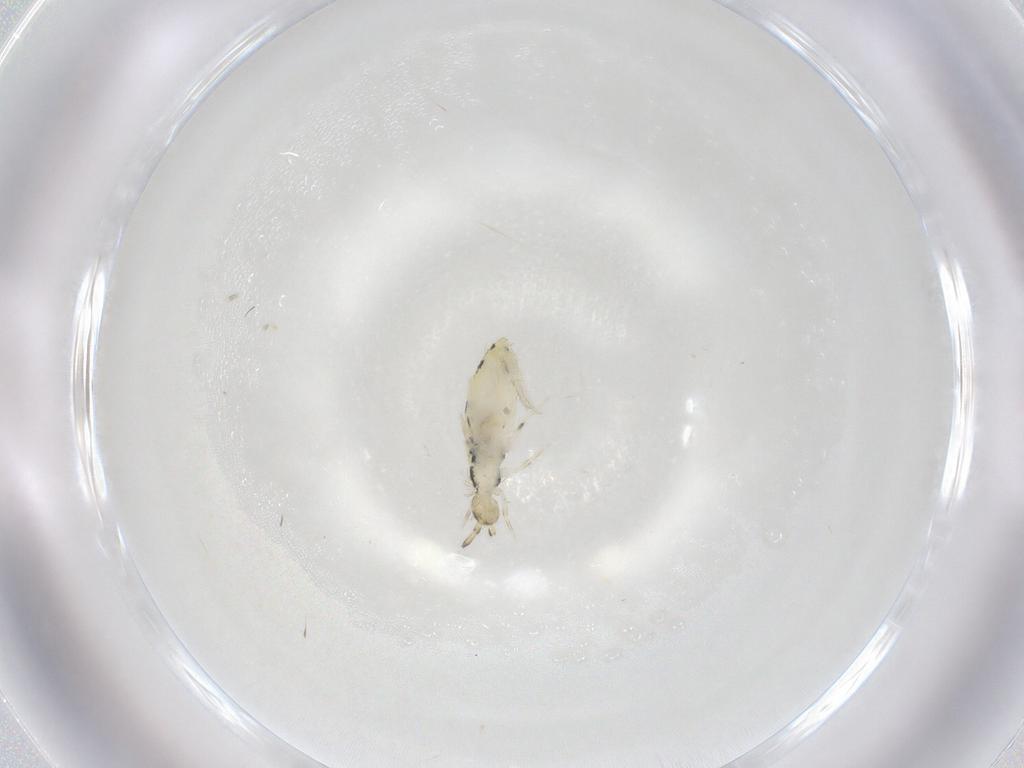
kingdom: Animalia
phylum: Arthropoda
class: Collembola
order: Entomobryomorpha
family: Entomobryidae
